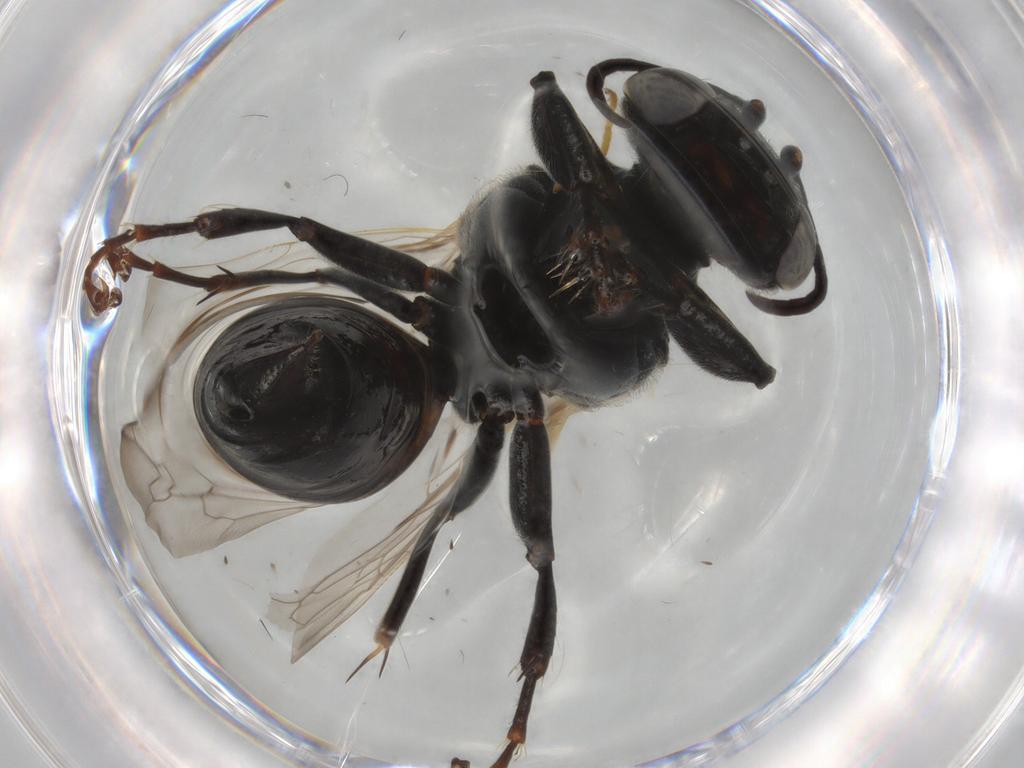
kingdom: Animalia
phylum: Arthropoda
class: Insecta
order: Hymenoptera
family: Crabronidae
